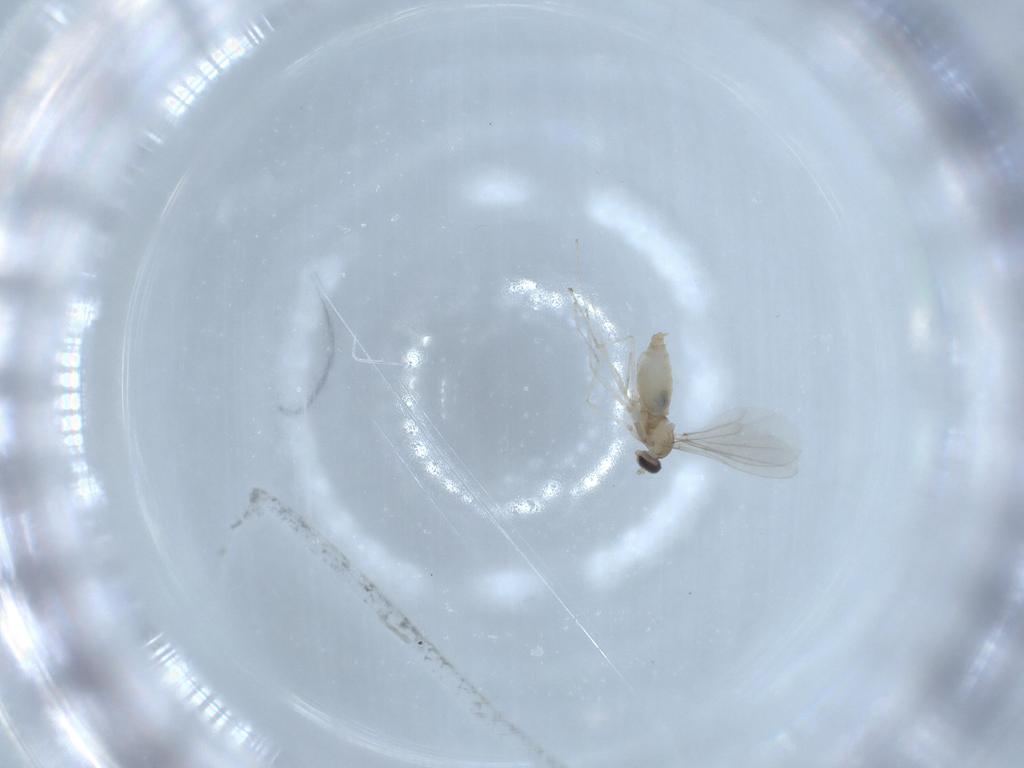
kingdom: Animalia
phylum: Arthropoda
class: Insecta
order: Diptera
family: Cecidomyiidae
